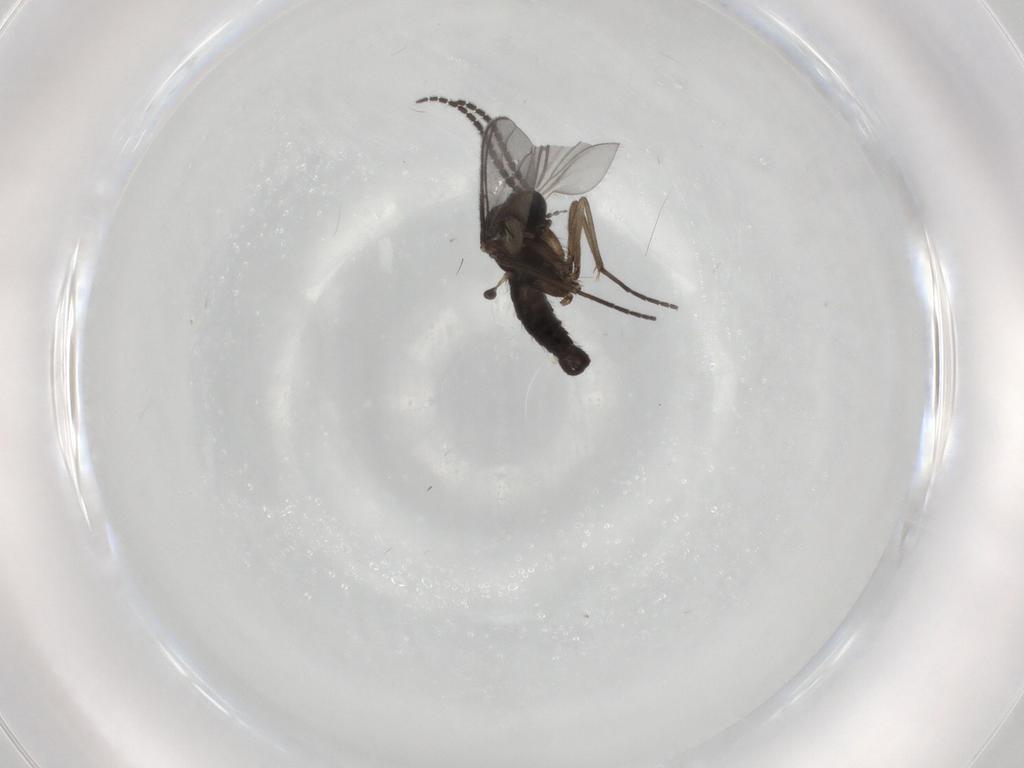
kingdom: Animalia
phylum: Arthropoda
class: Insecta
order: Diptera
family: Sciaridae
